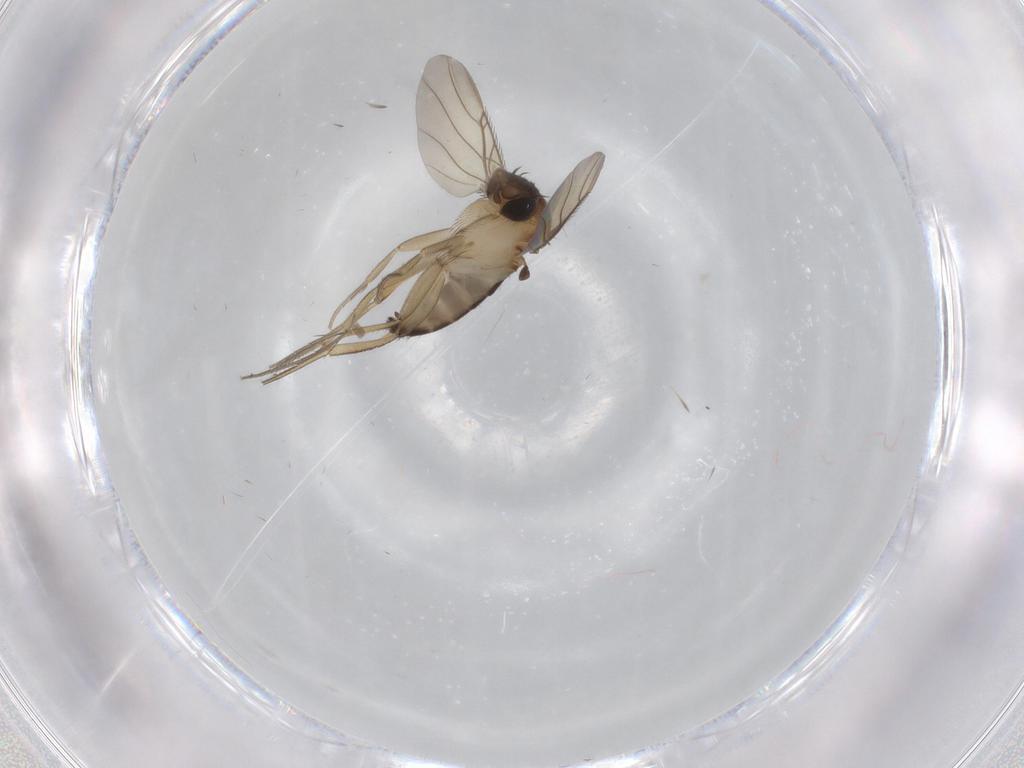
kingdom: Animalia
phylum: Arthropoda
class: Insecta
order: Diptera
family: Phoridae
